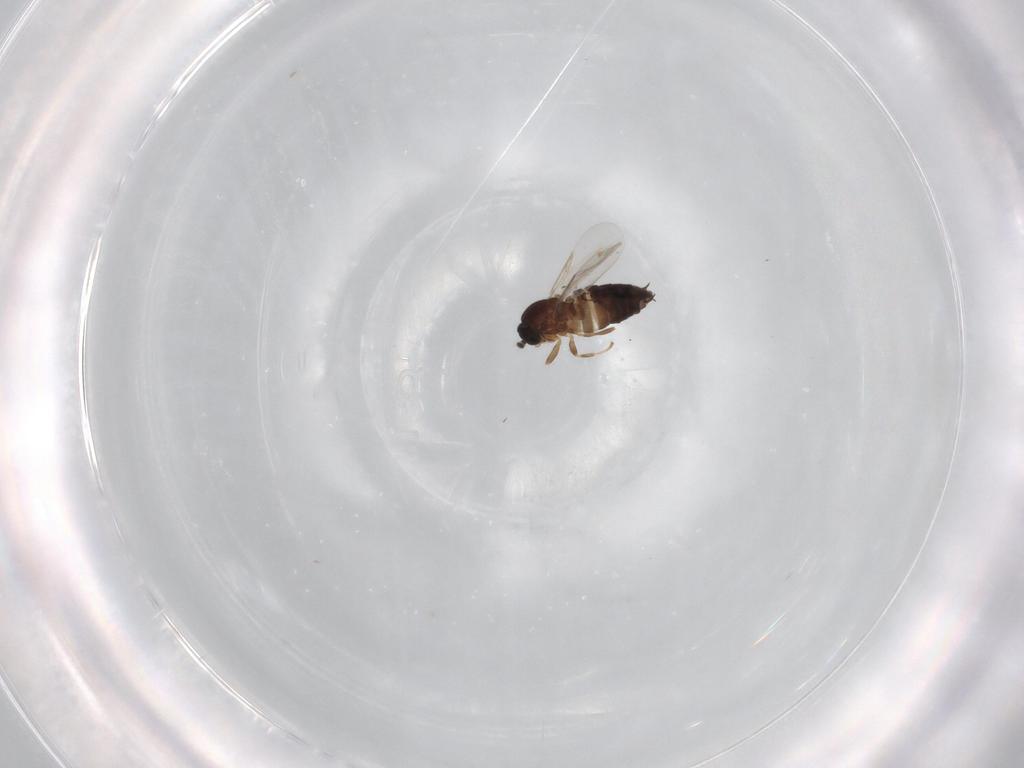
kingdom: Animalia
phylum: Arthropoda
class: Insecta
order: Diptera
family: Scatopsidae
